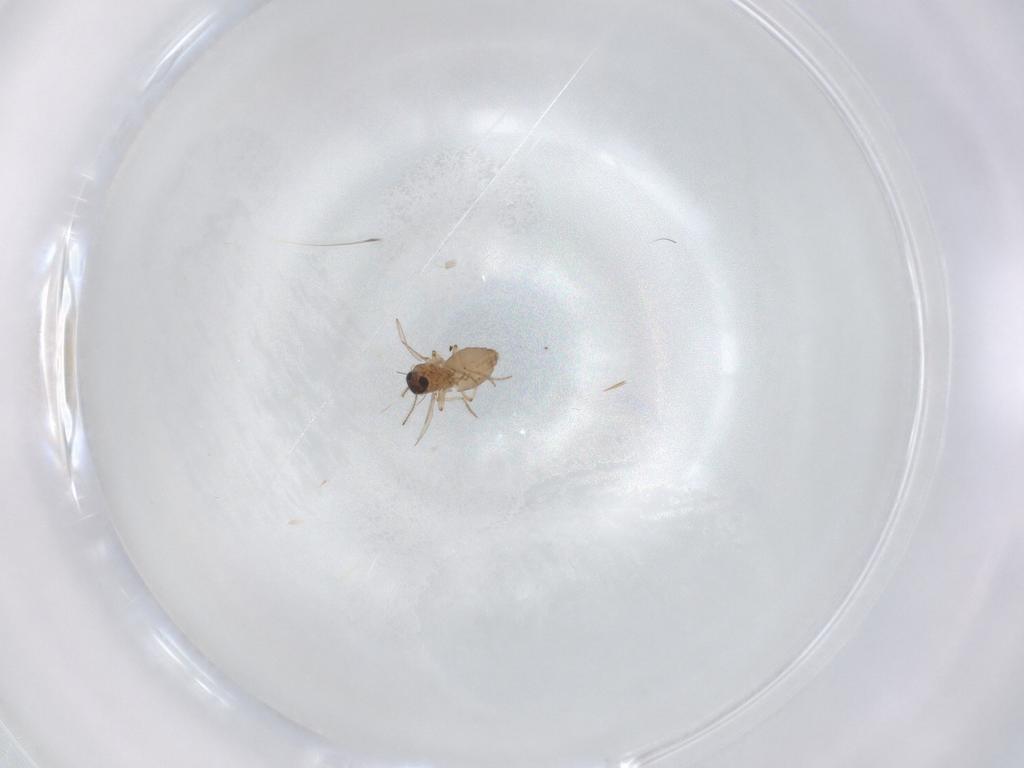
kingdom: Animalia
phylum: Arthropoda
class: Insecta
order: Diptera
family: Ceratopogonidae
